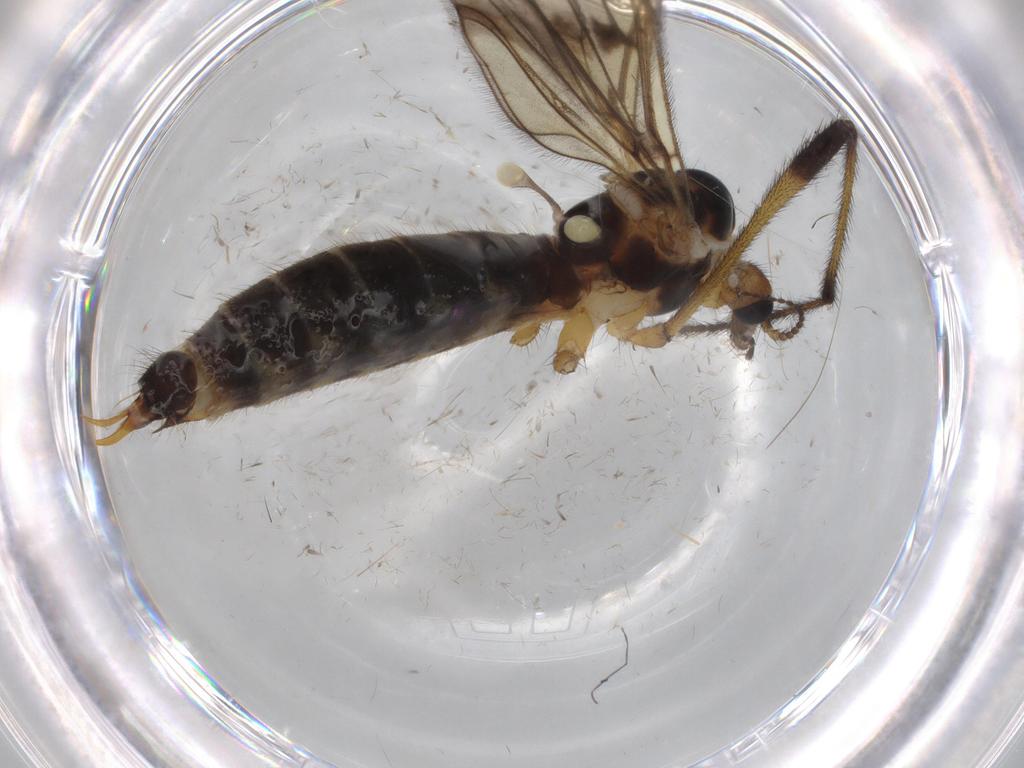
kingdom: Animalia
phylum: Arthropoda
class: Insecta
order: Diptera
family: Limoniidae
